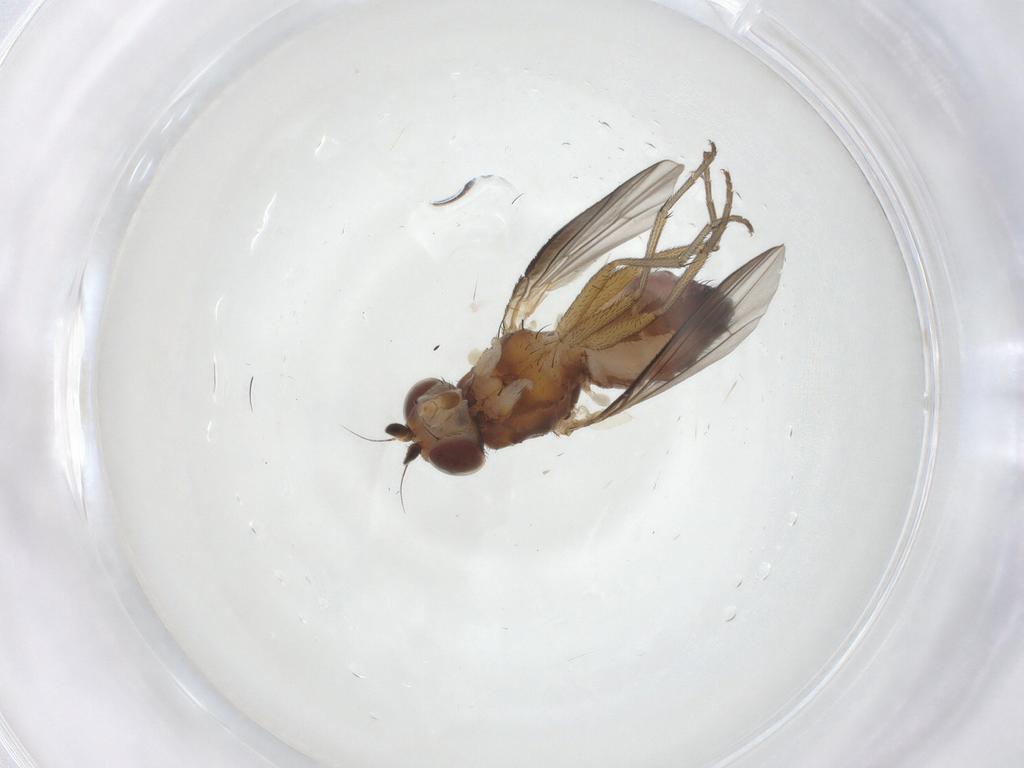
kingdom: Animalia
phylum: Arthropoda
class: Insecta
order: Diptera
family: Heleomyzidae
